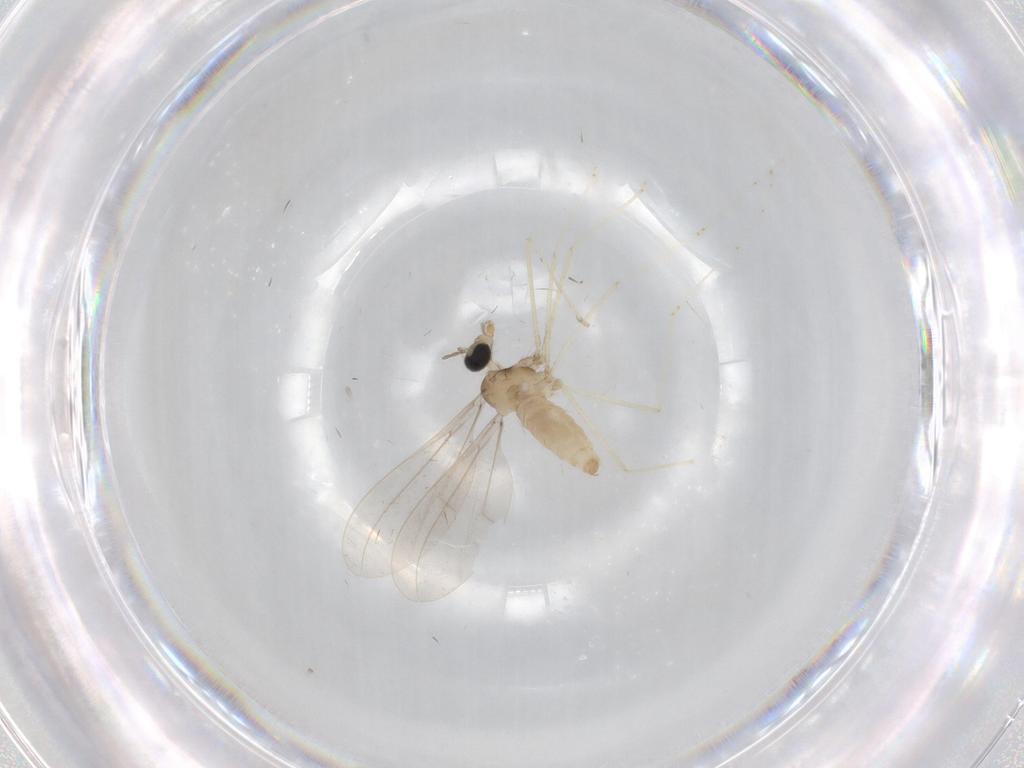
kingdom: Animalia
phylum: Arthropoda
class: Insecta
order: Diptera
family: Cecidomyiidae
